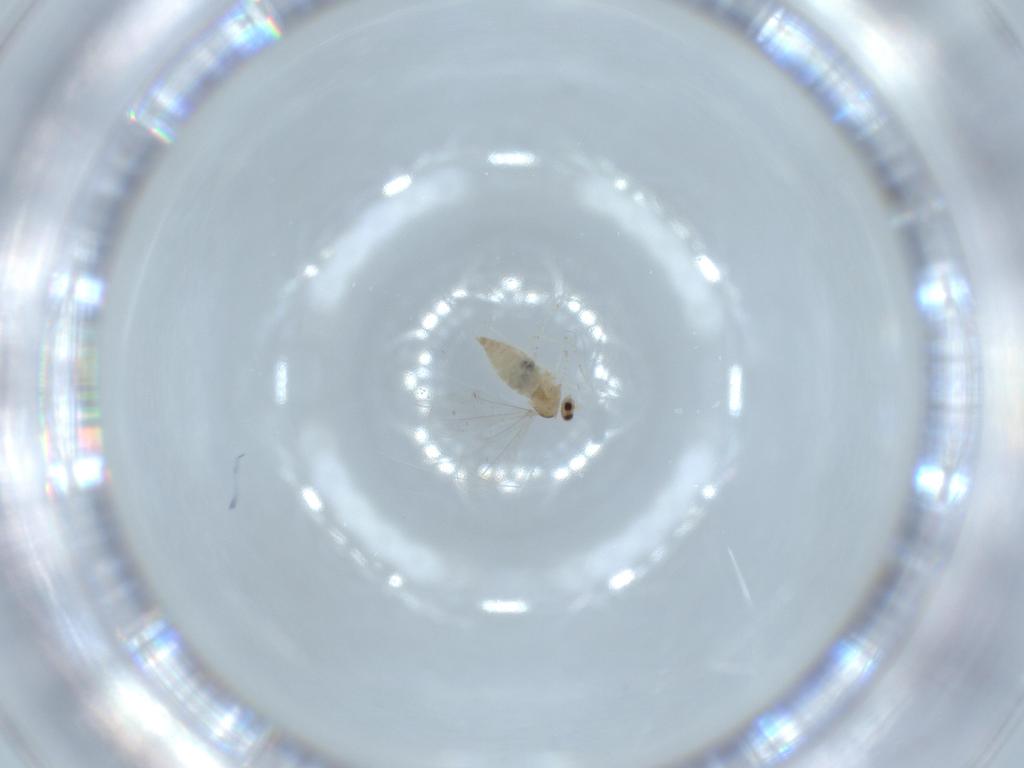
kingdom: Animalia
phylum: Arthropoda
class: Insecta
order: Diptera
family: Cecidomyiidae
